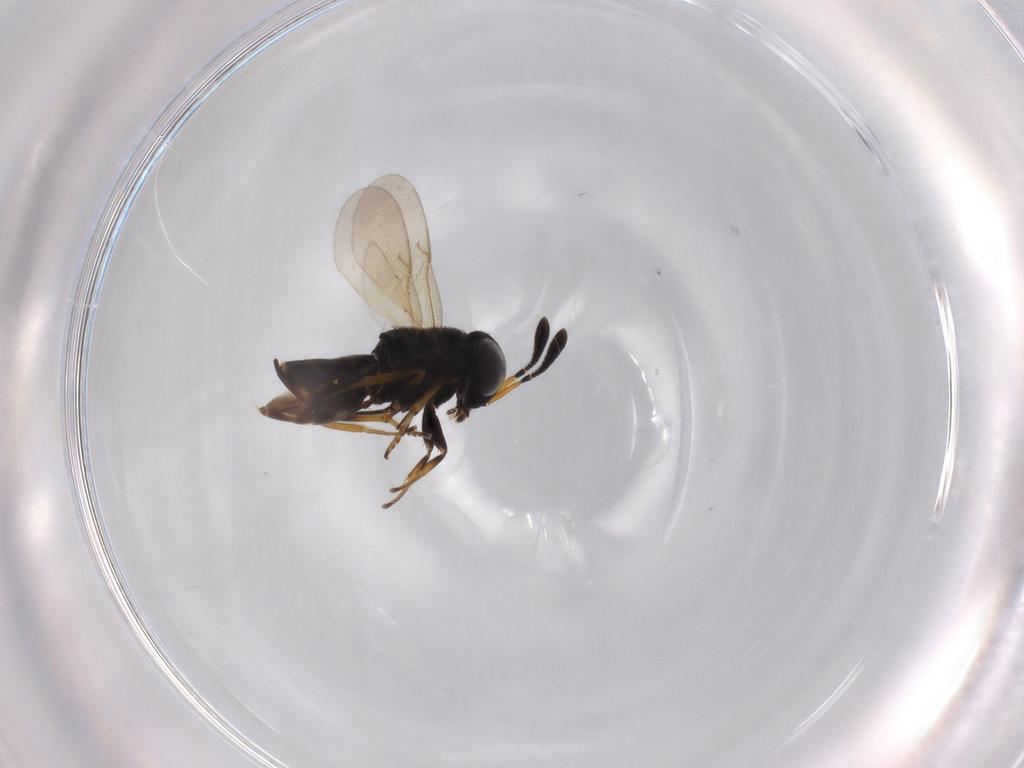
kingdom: Animalia
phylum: Arthropoda
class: Insecta
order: Hymenoptera
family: Encyrtidae
